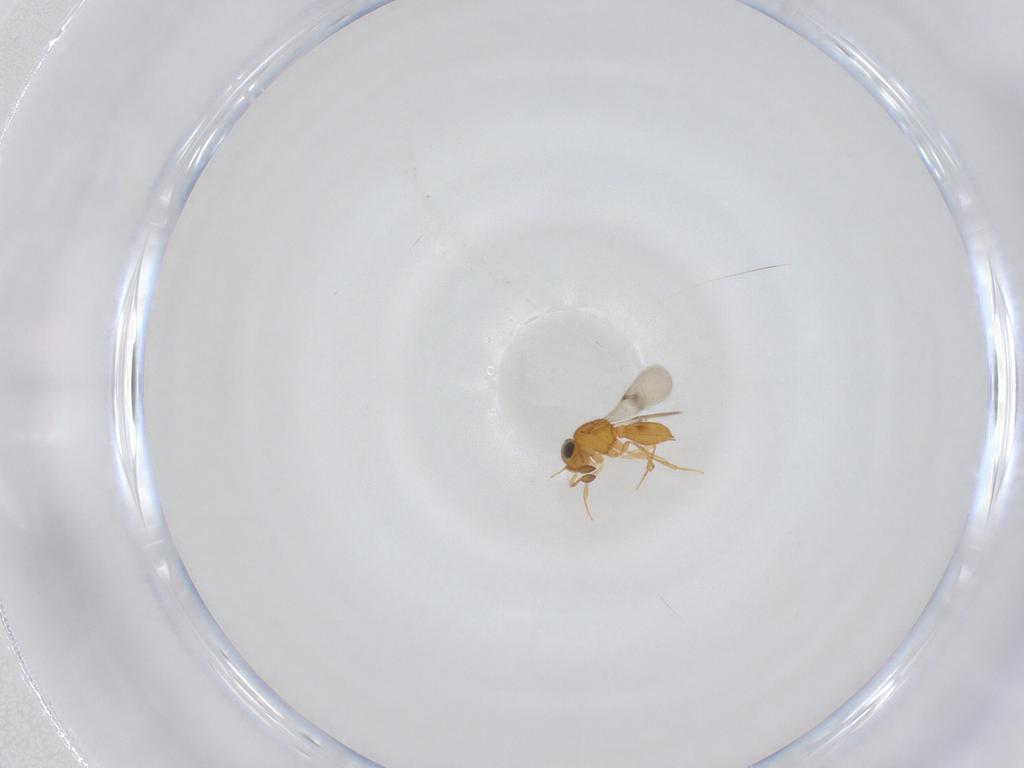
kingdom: Animalia
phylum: Arthropoda
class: Insecta
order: Hymenoptera
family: Scelionidae
